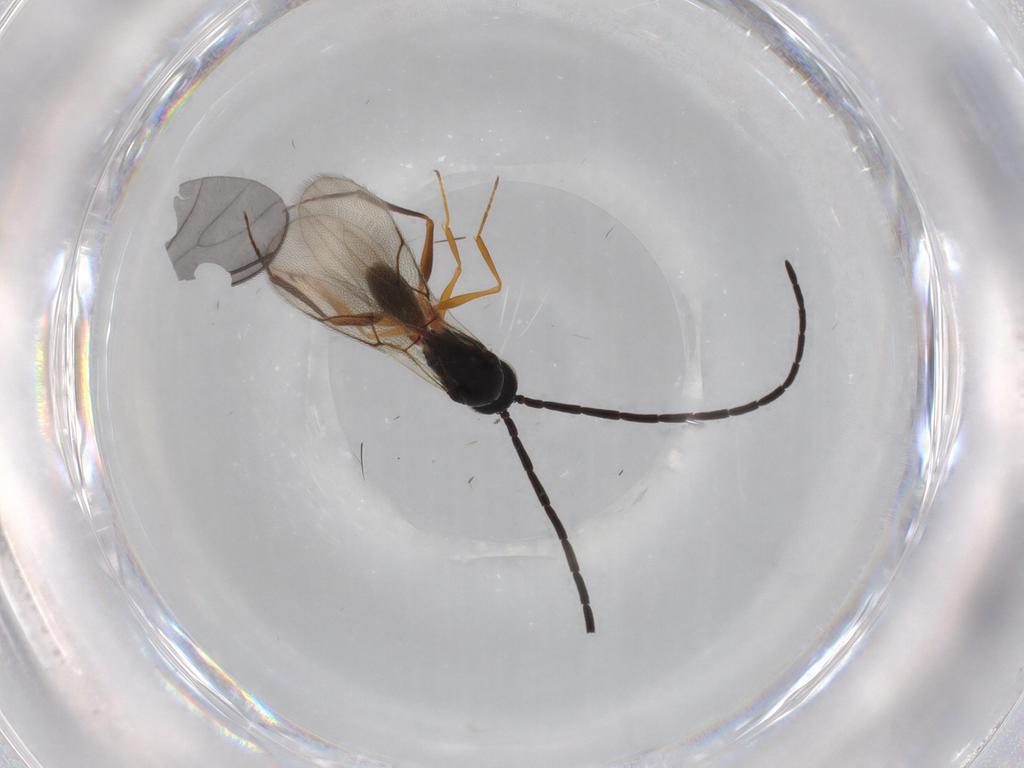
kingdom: Animalia
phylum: Arthropoda
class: Insecta
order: Hymenoptera
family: Figitidae
